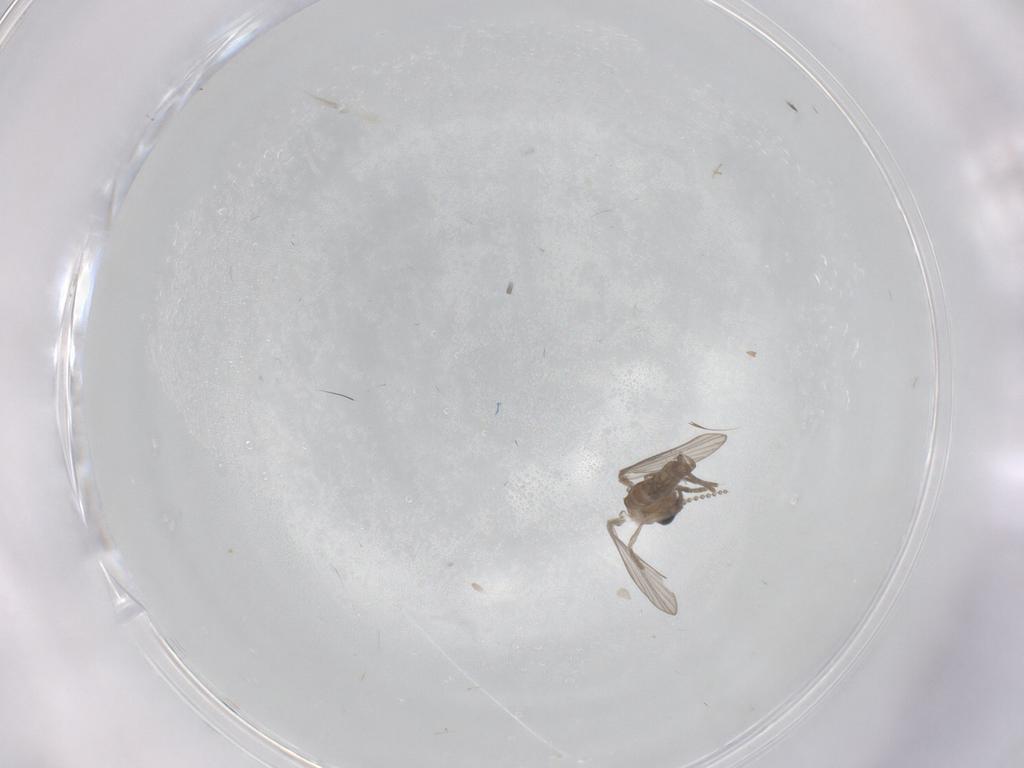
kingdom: Animalia
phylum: Arthropoda
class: Insecta
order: Diptera
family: Psychodidae
